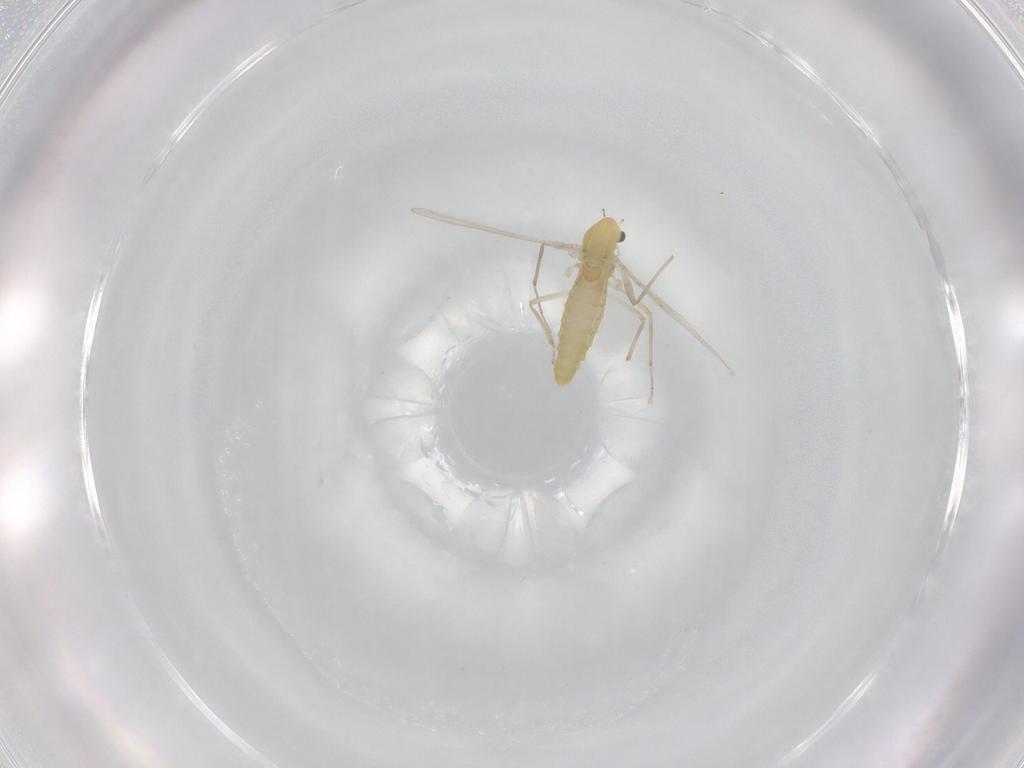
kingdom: Animalia
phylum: Arthropoda
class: Insecta
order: Diptera
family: Chironomidae
